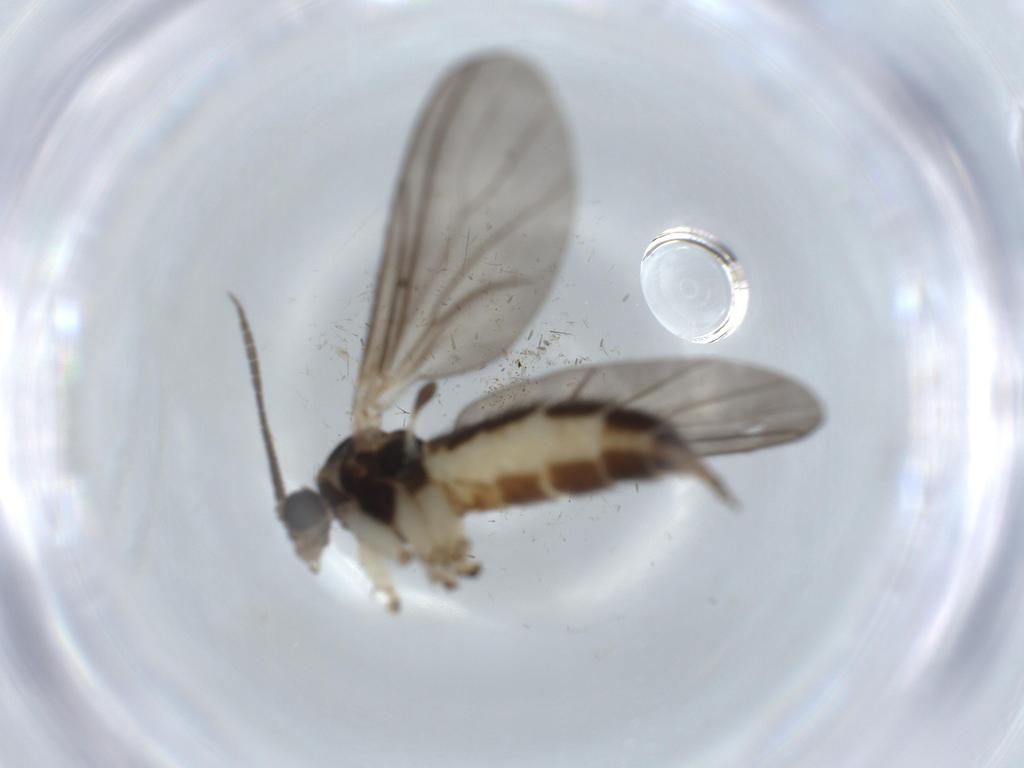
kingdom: Animalia
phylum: Arthropoda
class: Insecta
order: Diptera
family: Sciaridae
